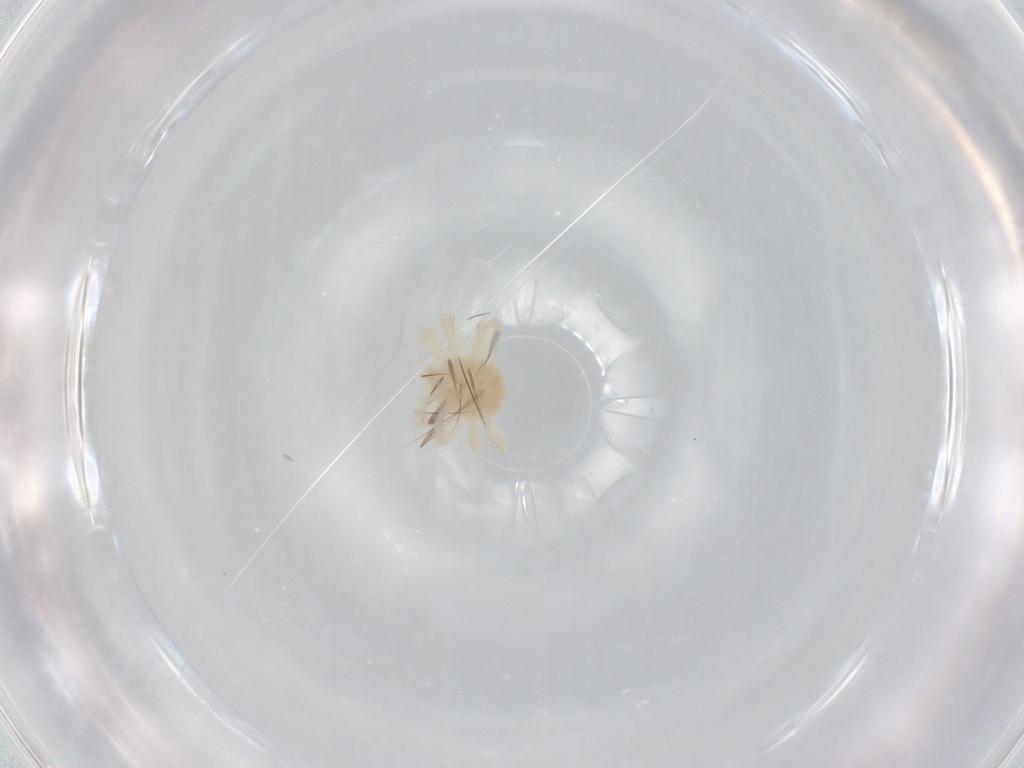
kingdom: Animalia
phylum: Arthropoda
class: Arachnida
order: Trombidiformes
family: Anystidae
